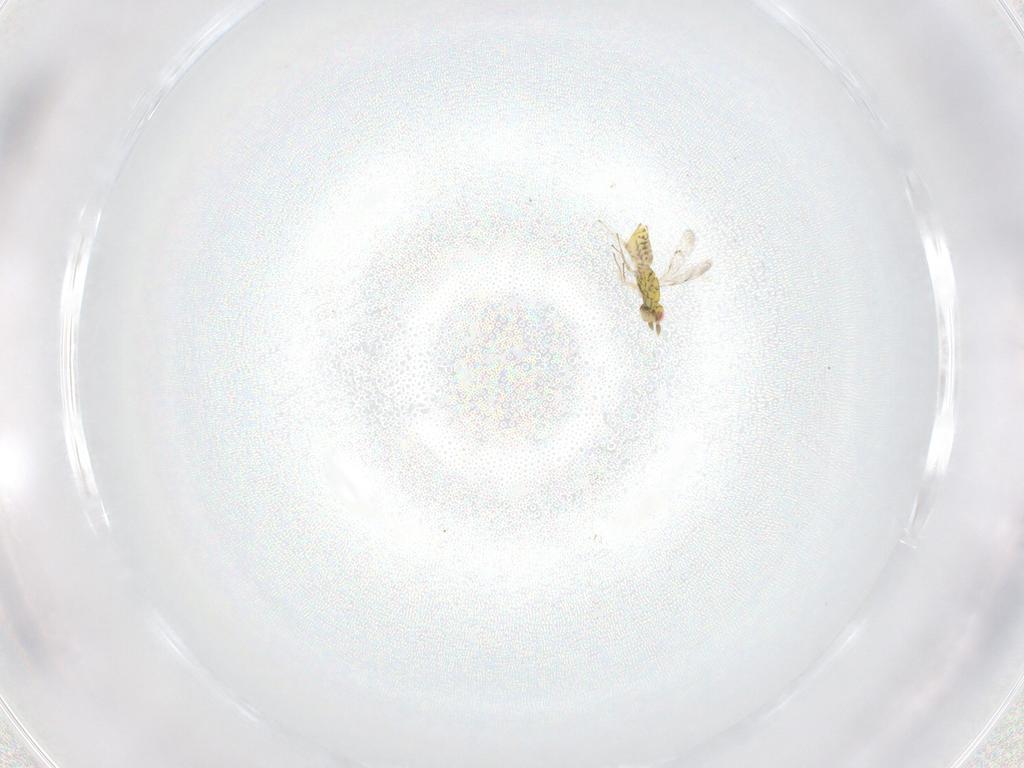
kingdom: Animalia
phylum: Arthropoda
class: Insecta
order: Hymenoptera
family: Eulophidae
